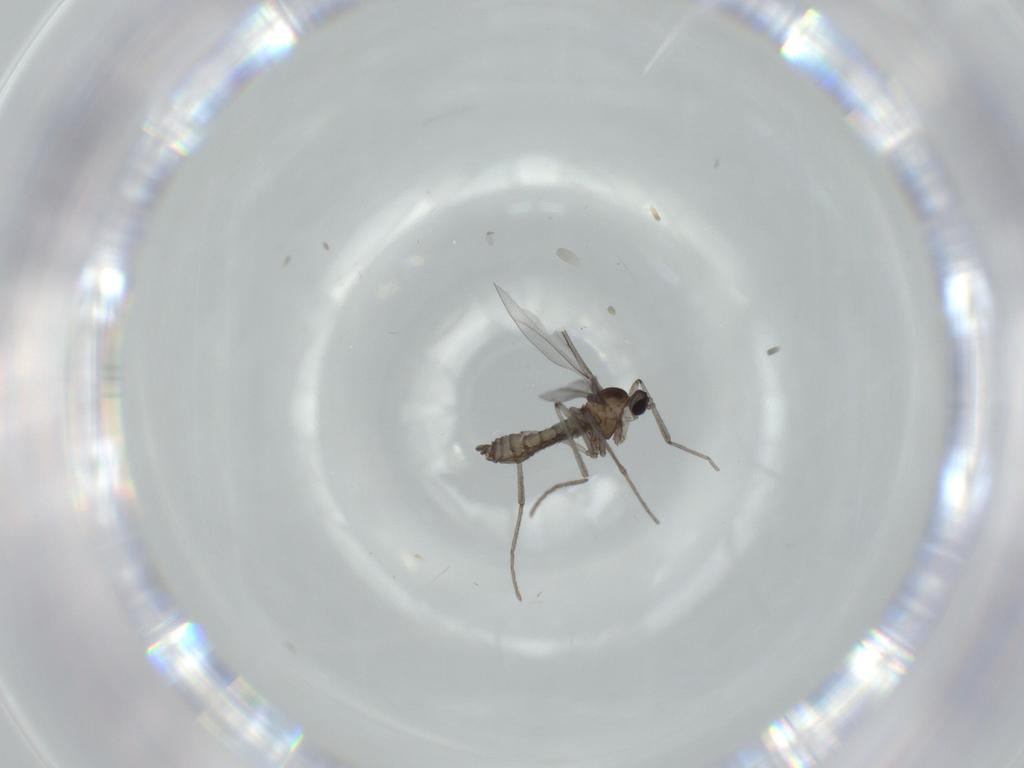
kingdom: Animalia
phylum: Arthropoda
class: Insecta
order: Diptera
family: Cecidomyiidae
